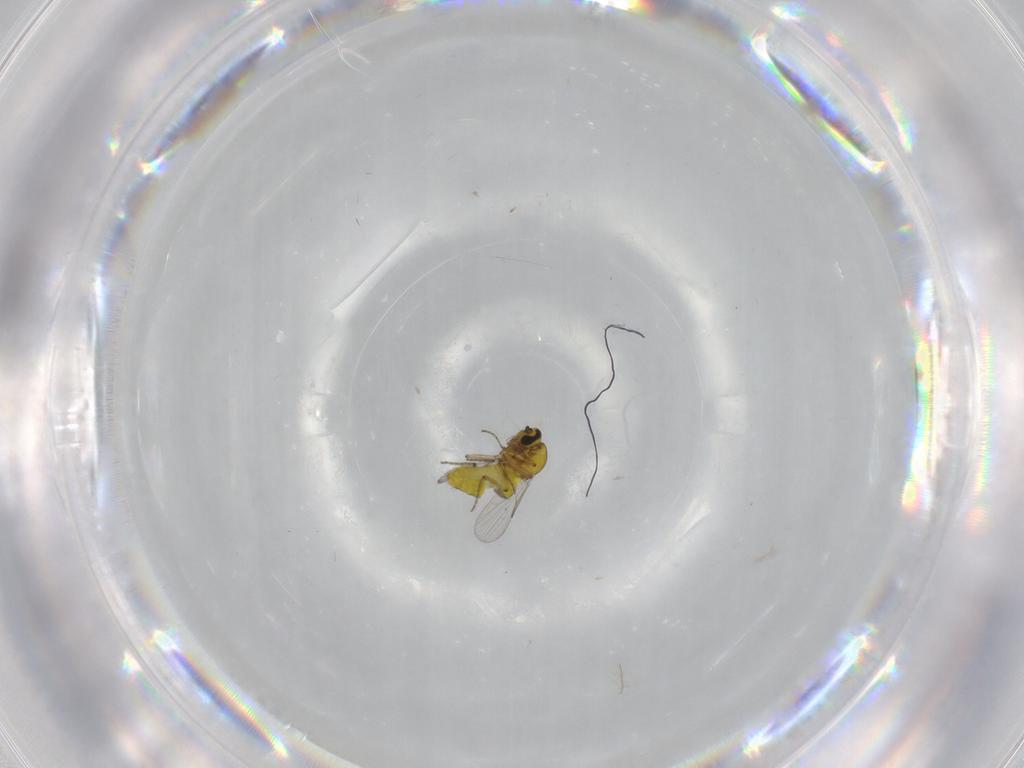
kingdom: Animalia
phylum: Arthropoda
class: Insecta
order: Diptera
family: Ceratopogonidae
